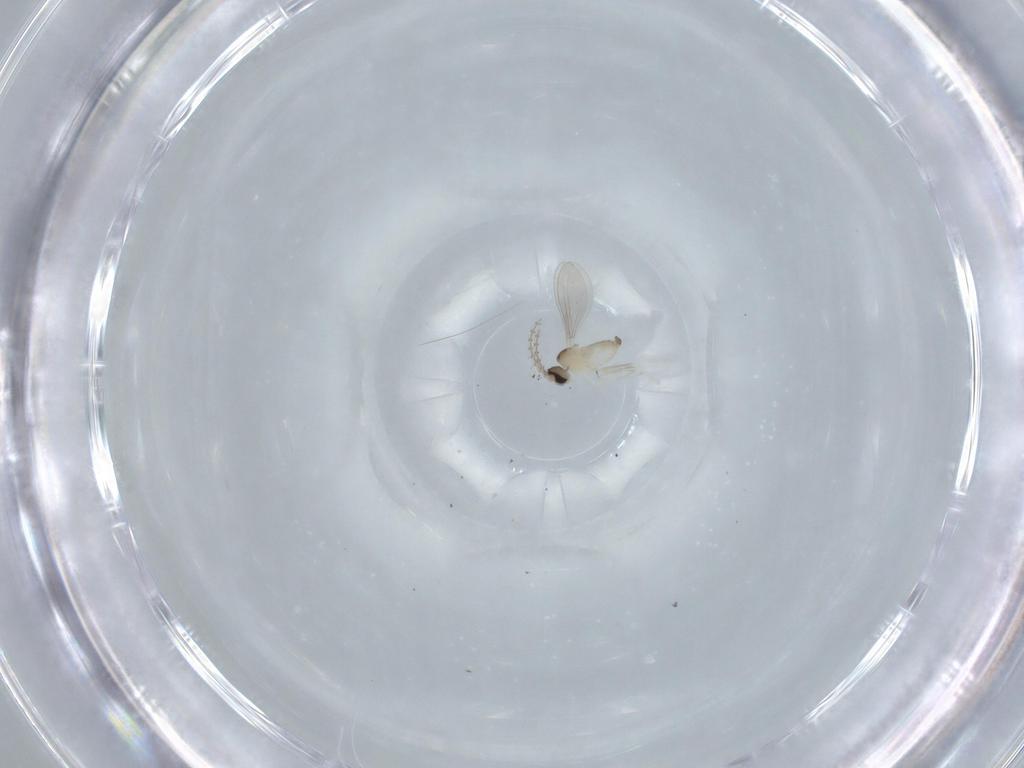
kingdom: Animalia
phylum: Arthropoda
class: Insecta
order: Diptera
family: Cecidomyiidae
